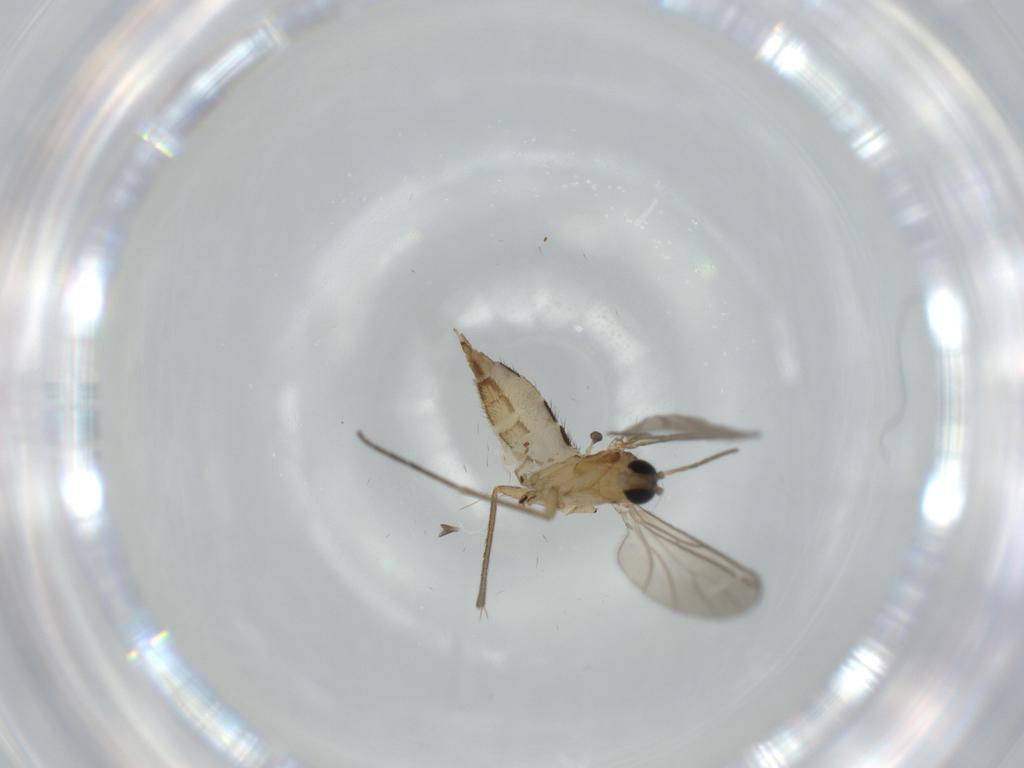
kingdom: Animalia
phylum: Arthropoda
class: Insecta
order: Diptera
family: Sciaridae
